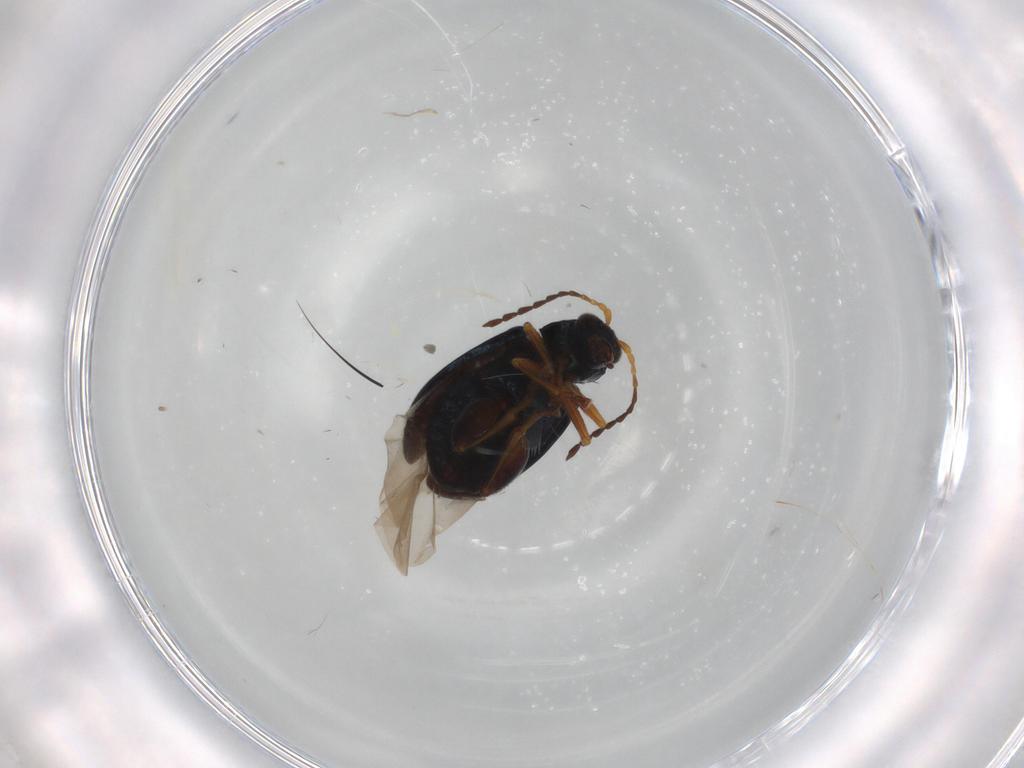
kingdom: Animalia
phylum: Arthropoda
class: Insecta
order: Coleoptera
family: Chrysomelidae
